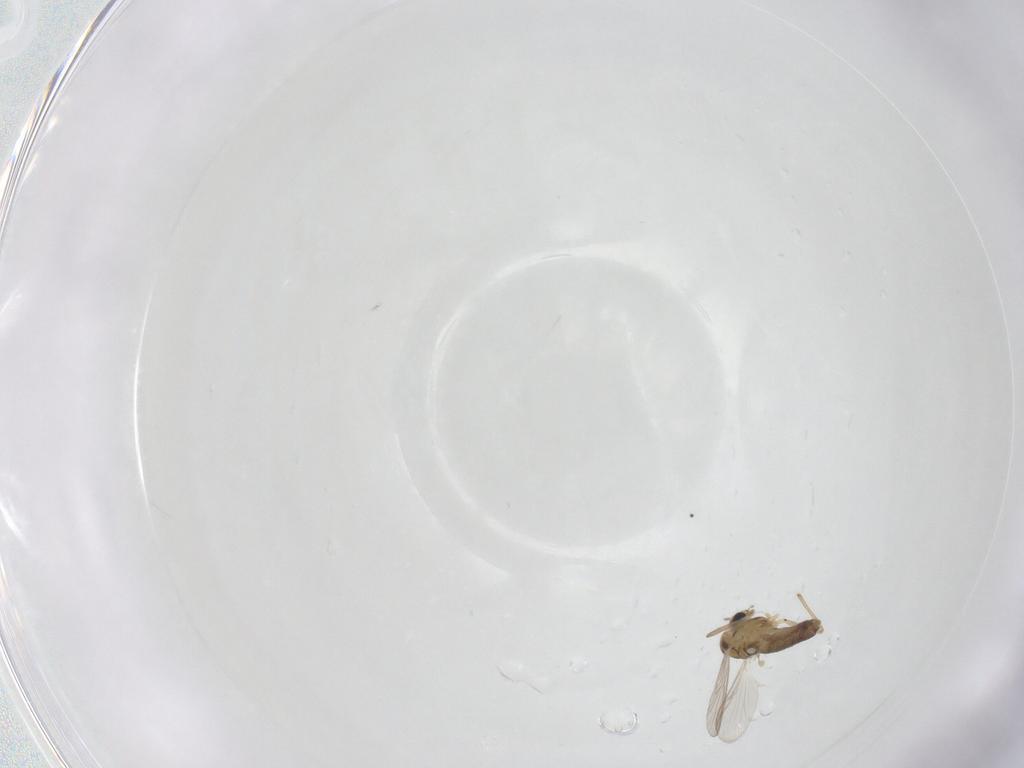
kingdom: Animalia
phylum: Arthropoda
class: Insecta
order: Diptera
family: Phoridae
